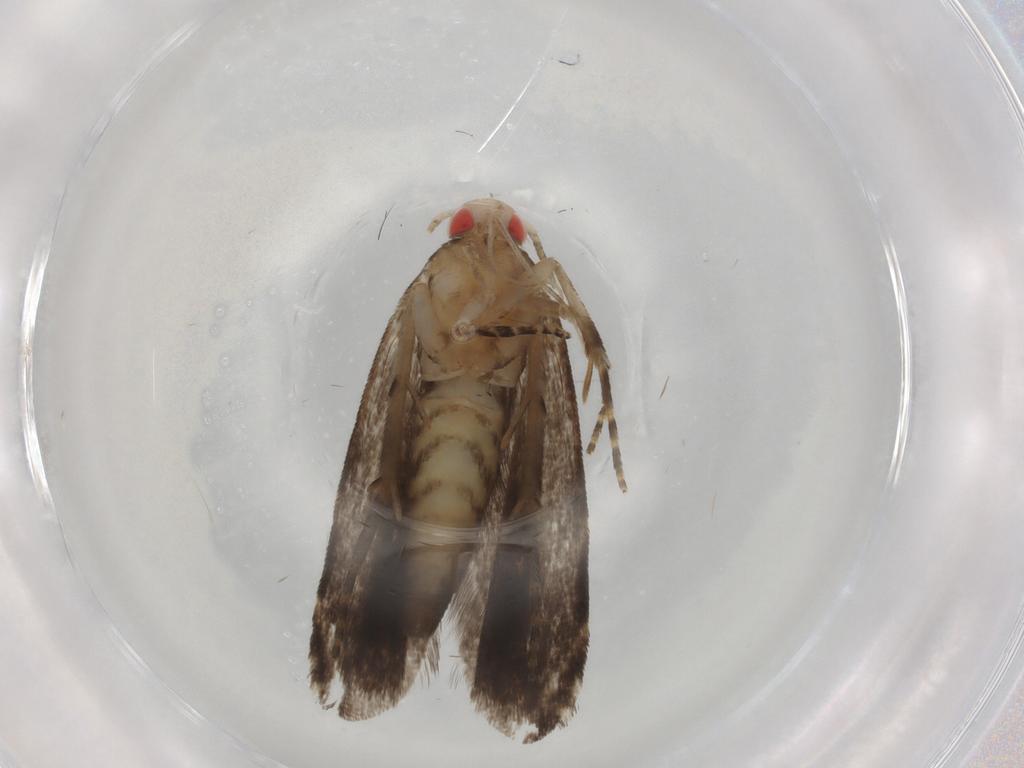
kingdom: Animalia
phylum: Arthropoda
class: Insecta
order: Lepidoptera
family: Crambidae
